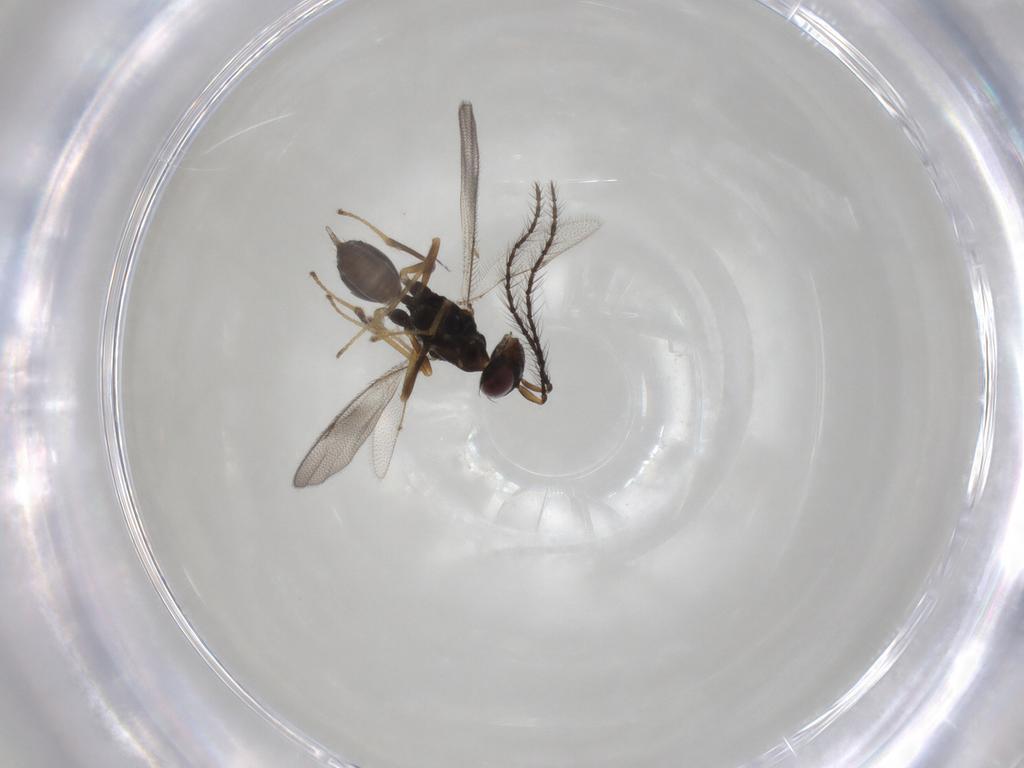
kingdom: Animalia
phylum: Arthropoda
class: Insecta
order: Hymenoptera
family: Diparidae
